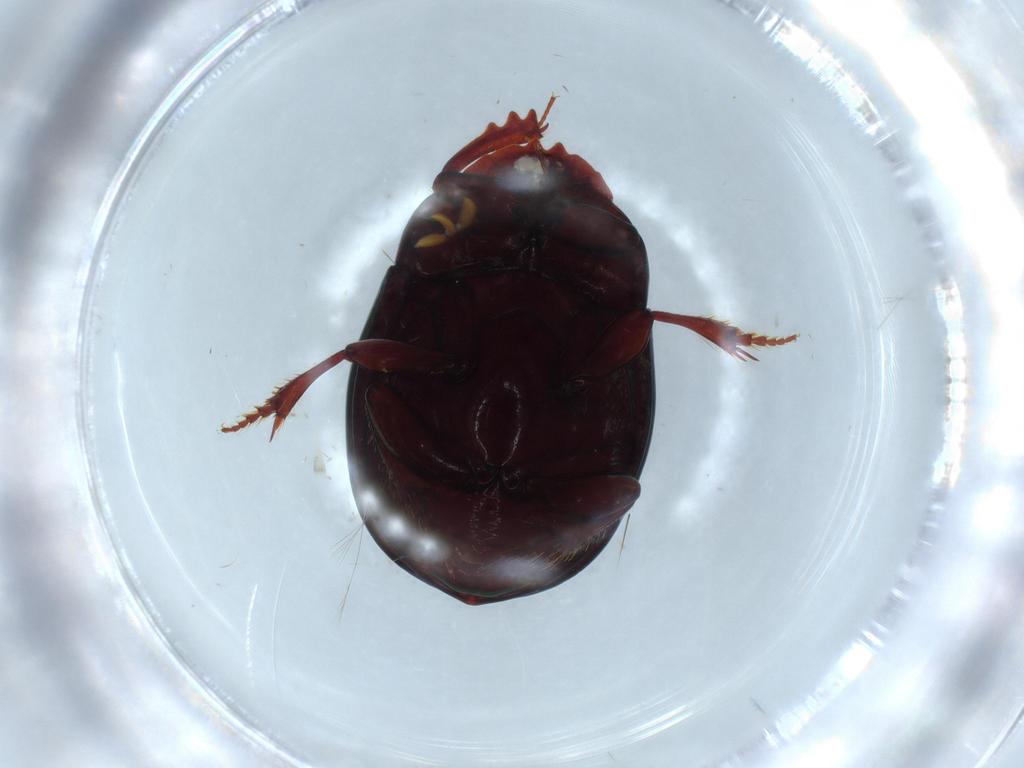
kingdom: Animalia
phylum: Arthropoda
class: Insecta
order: Coleoptera
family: Scarabaeidae
